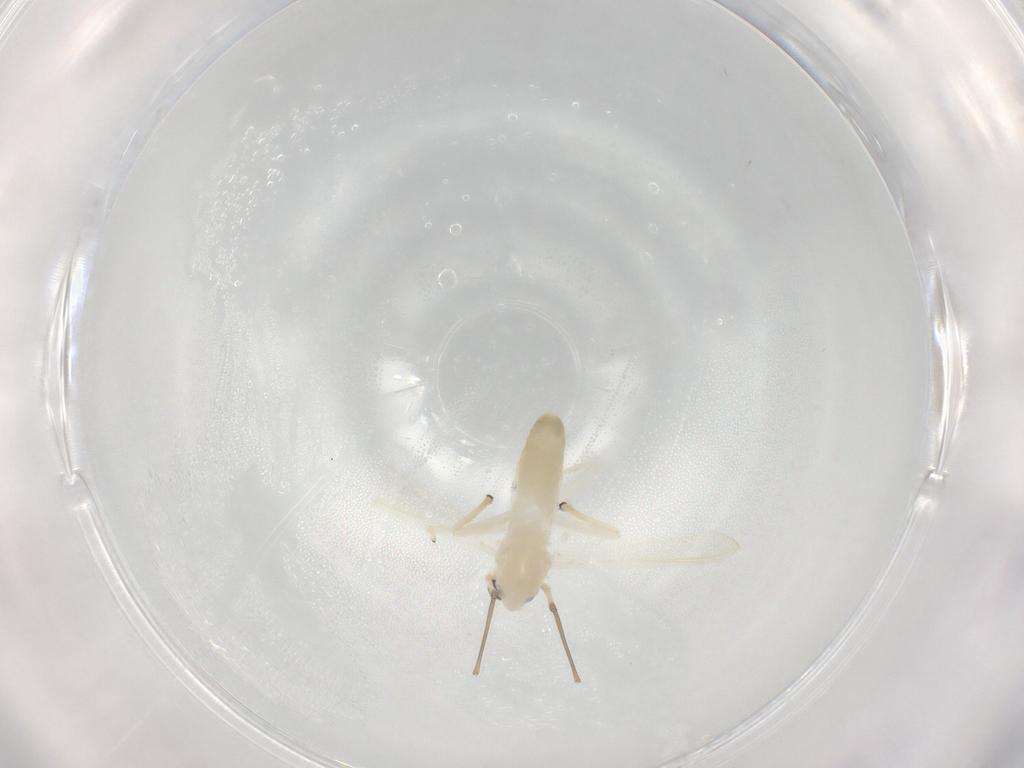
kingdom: Animalia
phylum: Arthropoda
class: Insecta
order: Diptera
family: Chironomidae
